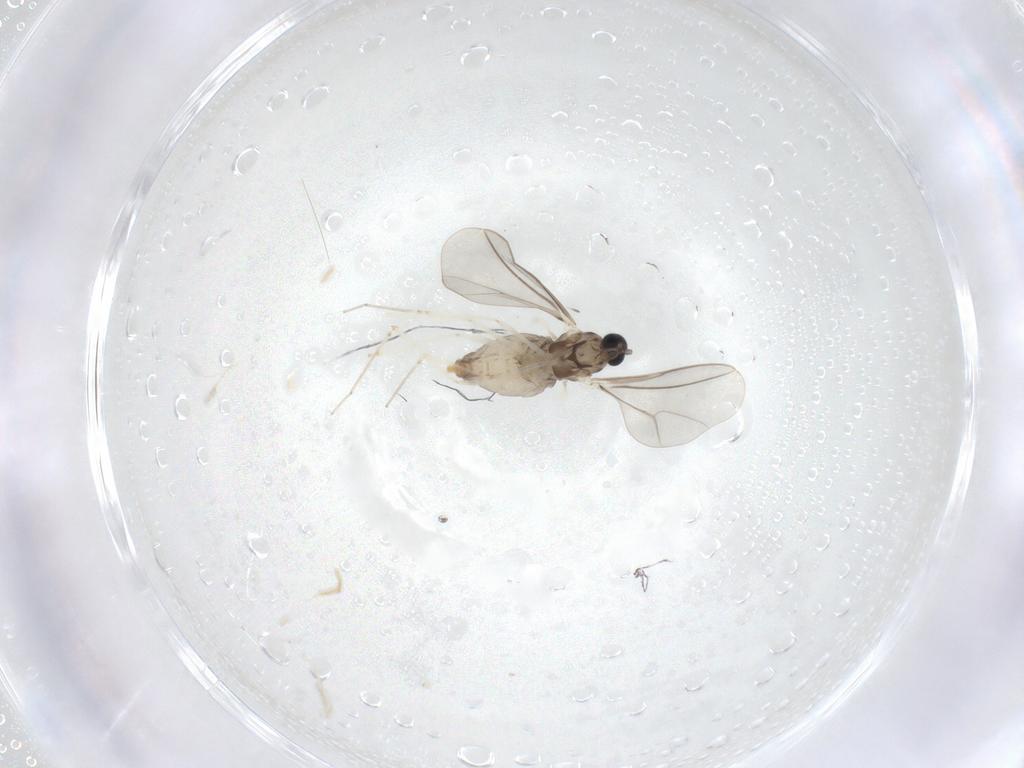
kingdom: Animalia
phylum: Arthropoda
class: Insecta
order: Diptera
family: Cecidomyiidae
